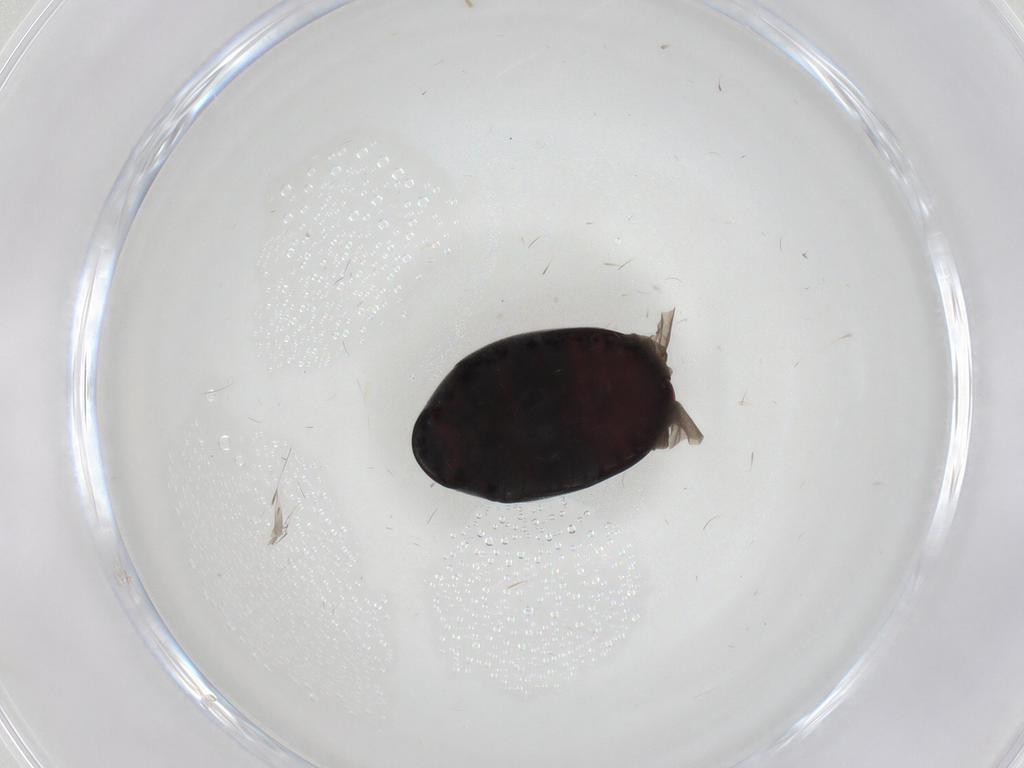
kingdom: Animalia
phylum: Arthropoda
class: Insecta
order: Coleoptera
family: Ptinidae
